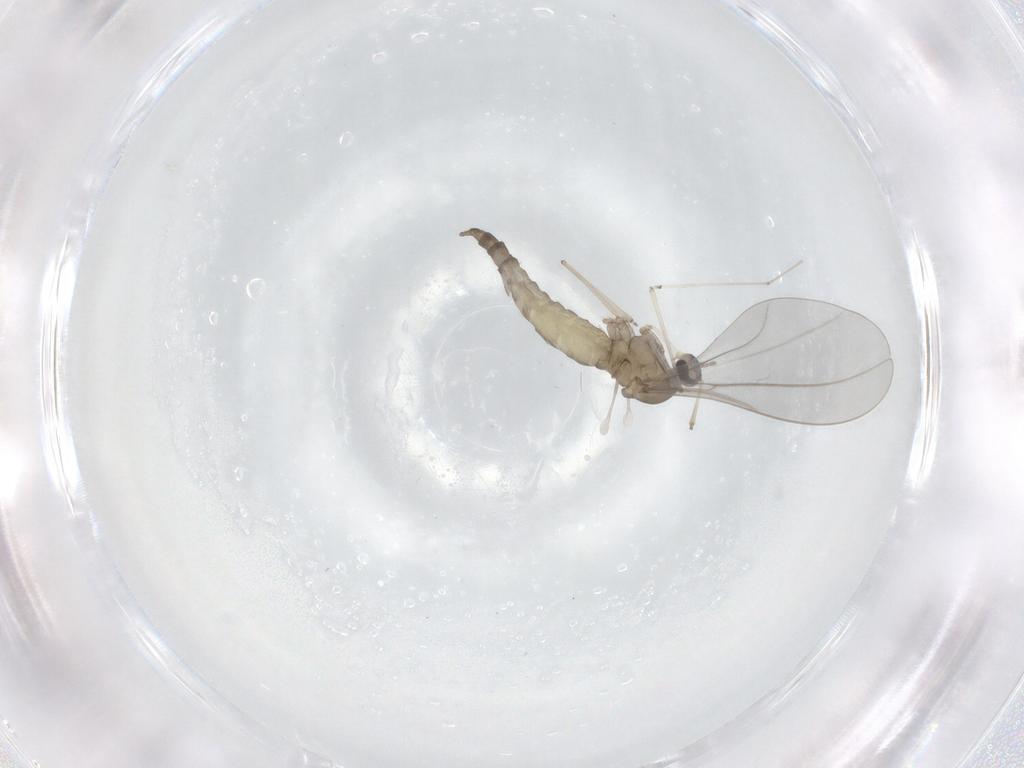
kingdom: Animalia
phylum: Arthropoda
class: Insecta
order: Diptera
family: Cecidomyiidae
